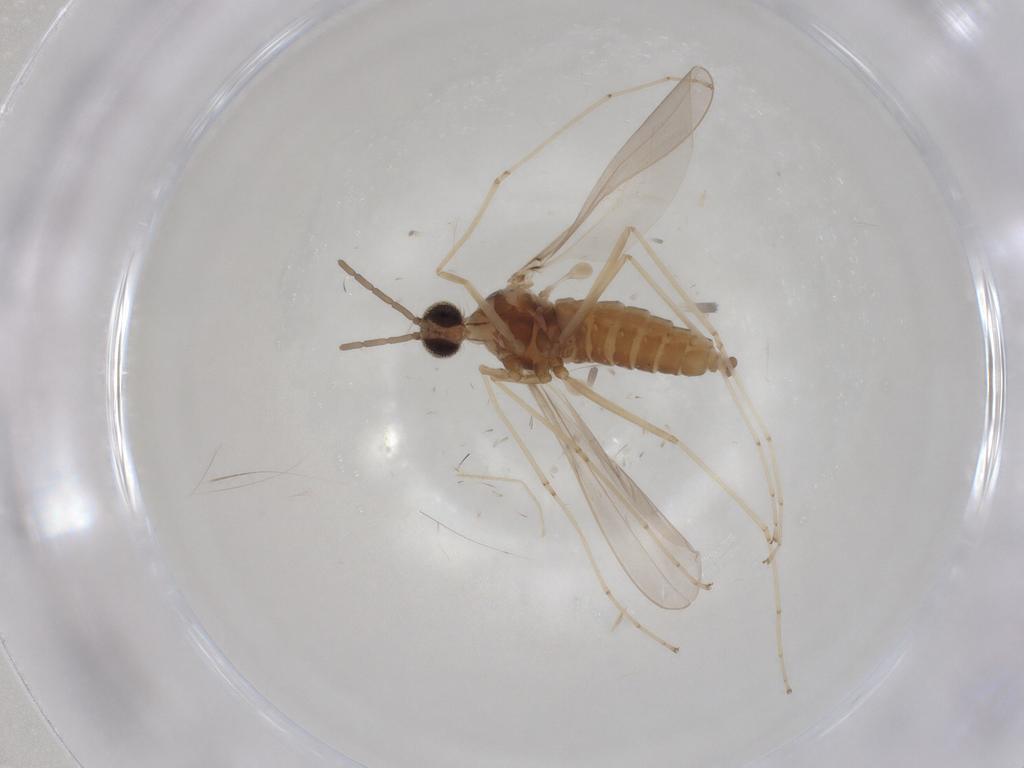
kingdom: Animalia
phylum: Arthropoda
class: Insecta
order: Diptera
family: Cecidomyiidae
